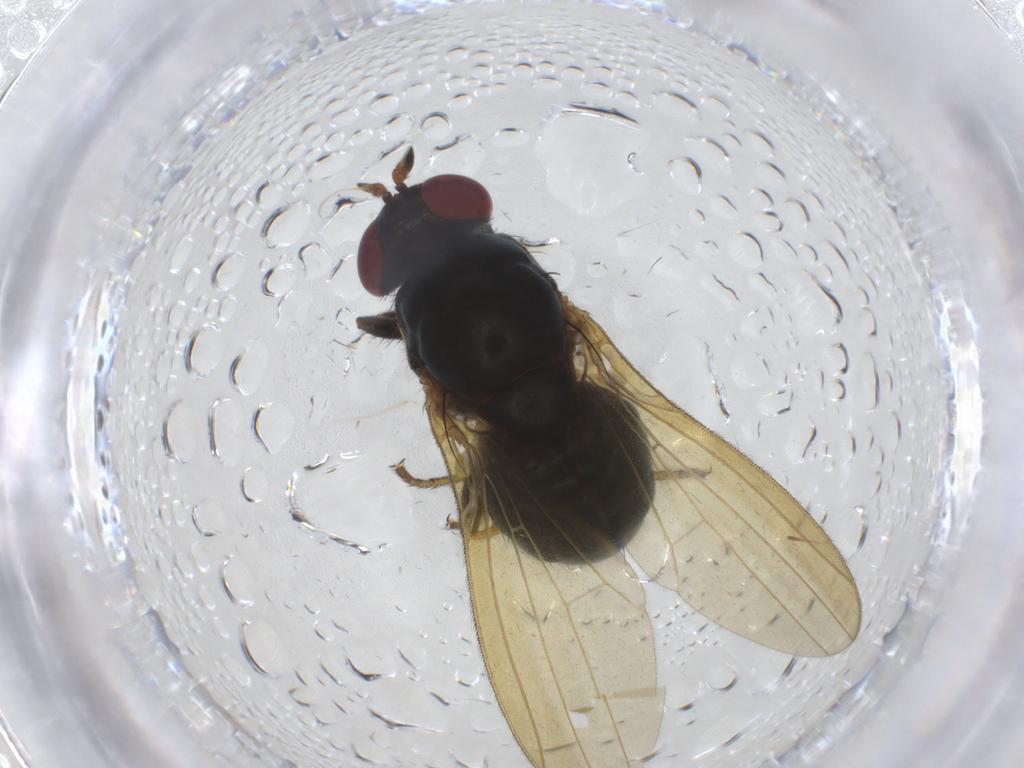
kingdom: Animalia
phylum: Arthropoda
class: Insecta
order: Diptera
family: Lauxaniidae
